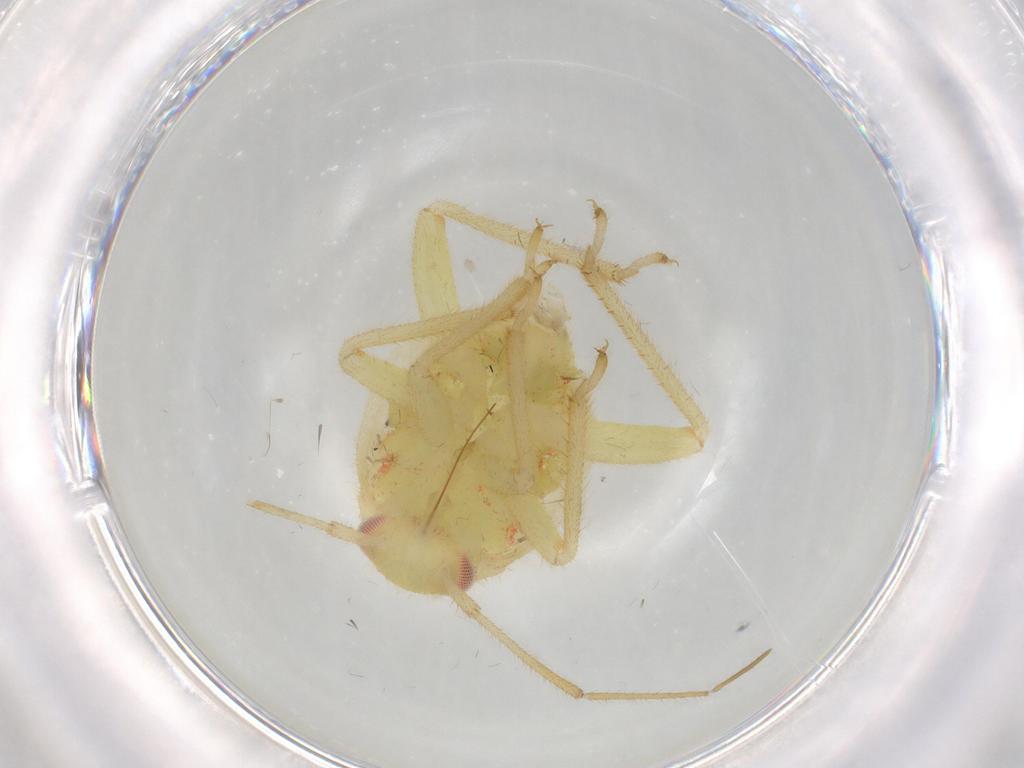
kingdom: Animalia
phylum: Arthropoda
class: Insecta
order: Hemiptera
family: Miridae
